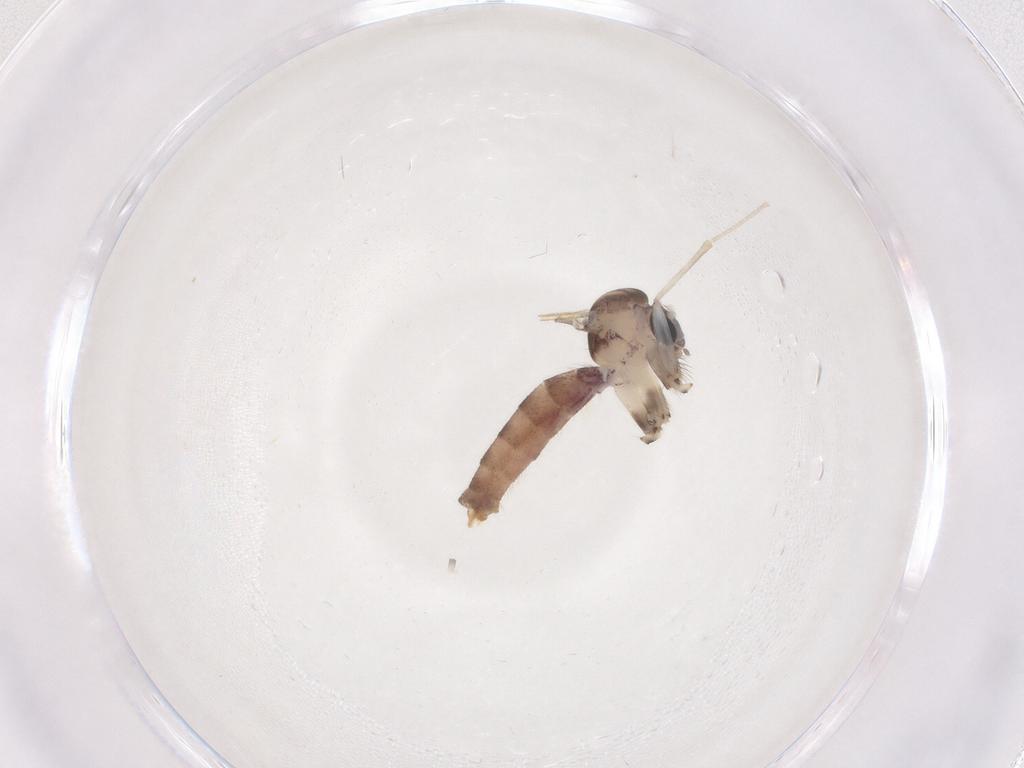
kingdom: Animalia
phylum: Arthropoda
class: Insecta
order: Diptera
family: Mycetophilidae
